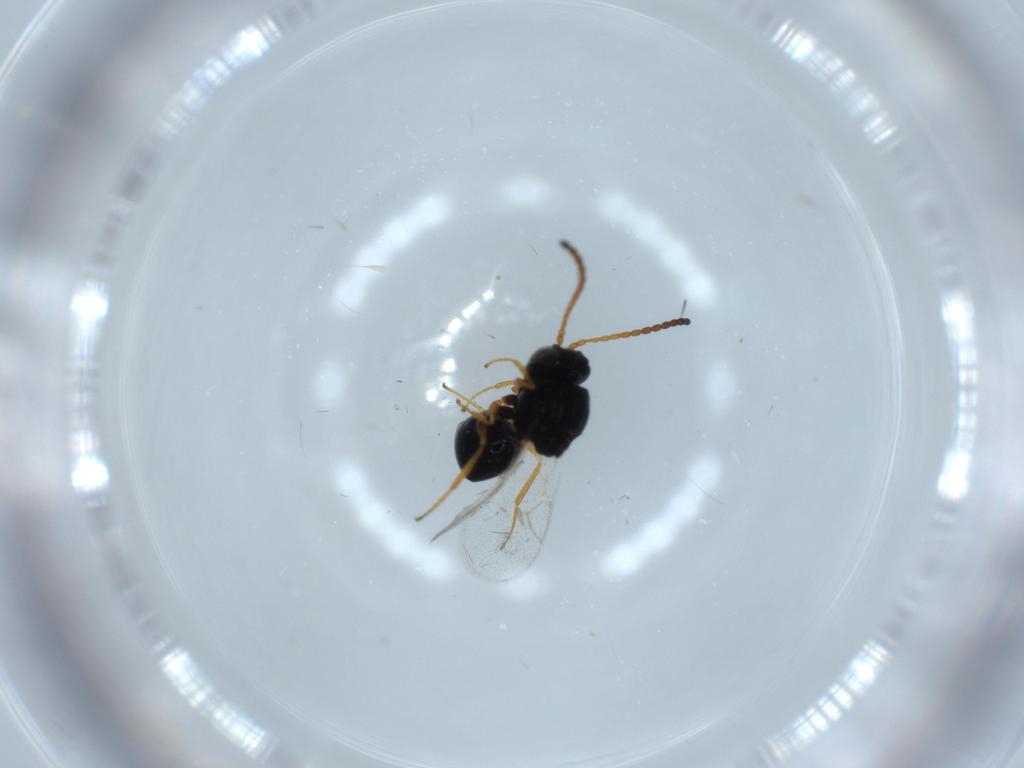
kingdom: Animalia
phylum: Arthropoda
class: Insecta
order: Hymenoptera
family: Figitidae
